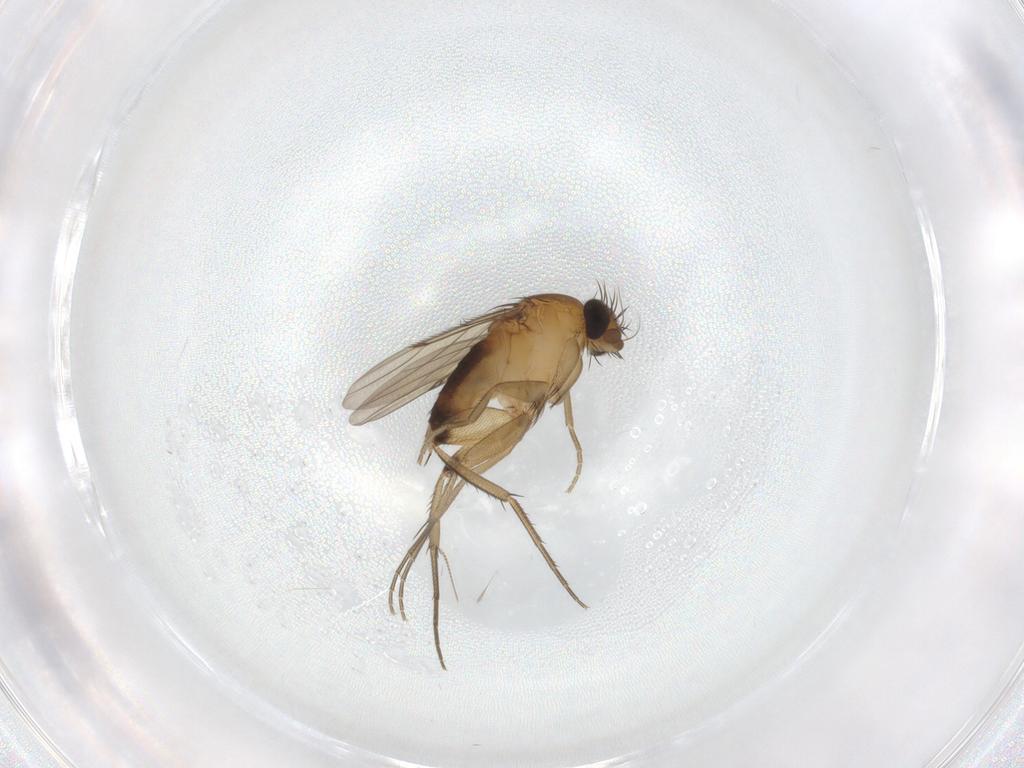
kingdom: Animalia
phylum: Arthropoda
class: Insecta
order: Diptera
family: Phoridae
